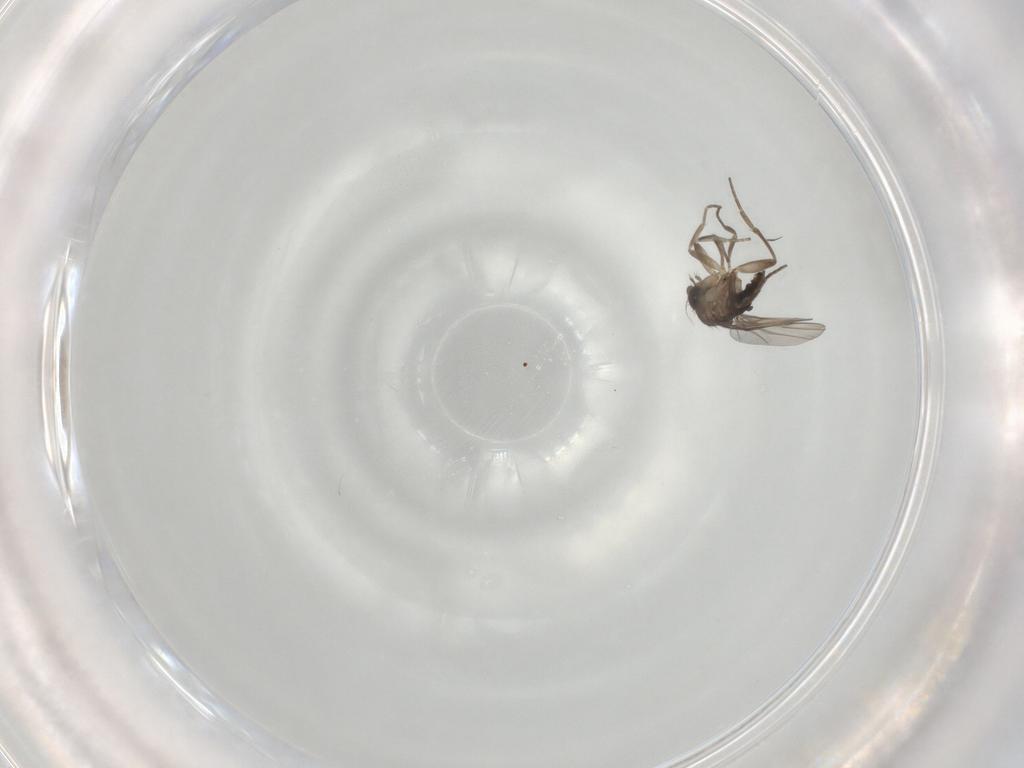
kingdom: Animalia
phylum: Arthropoda
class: Insecta
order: Diptera
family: Phoridae
